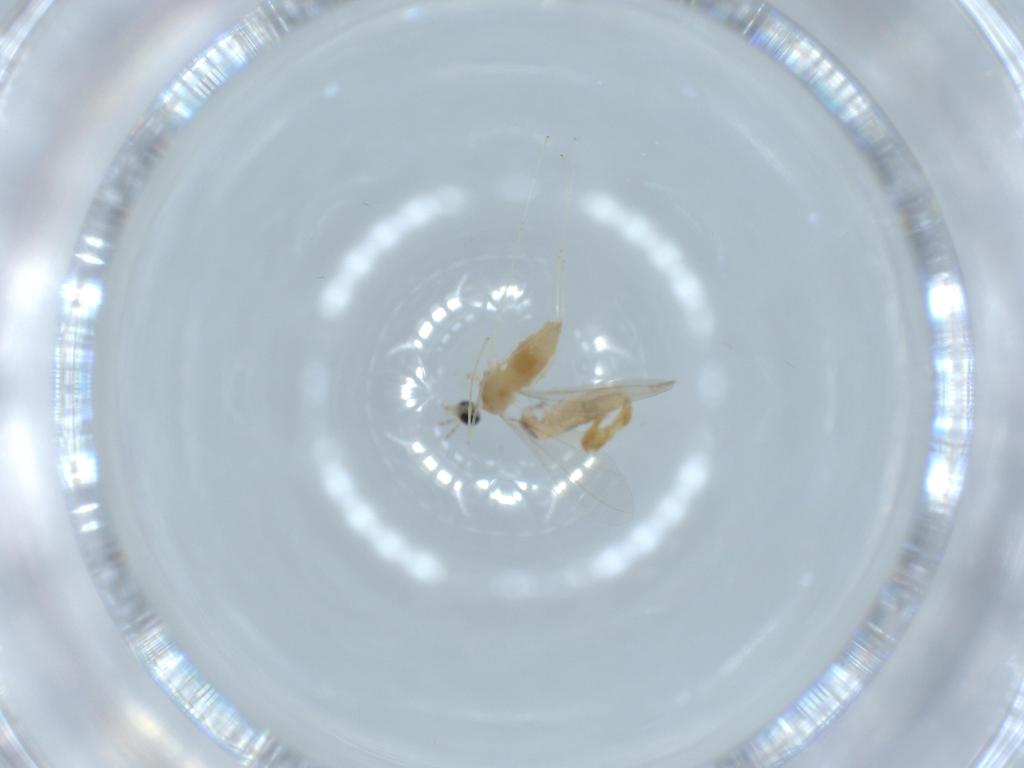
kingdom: Animalia
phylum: Arthropoda
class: Insecta
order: Diptera
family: Cecidomyiidae
